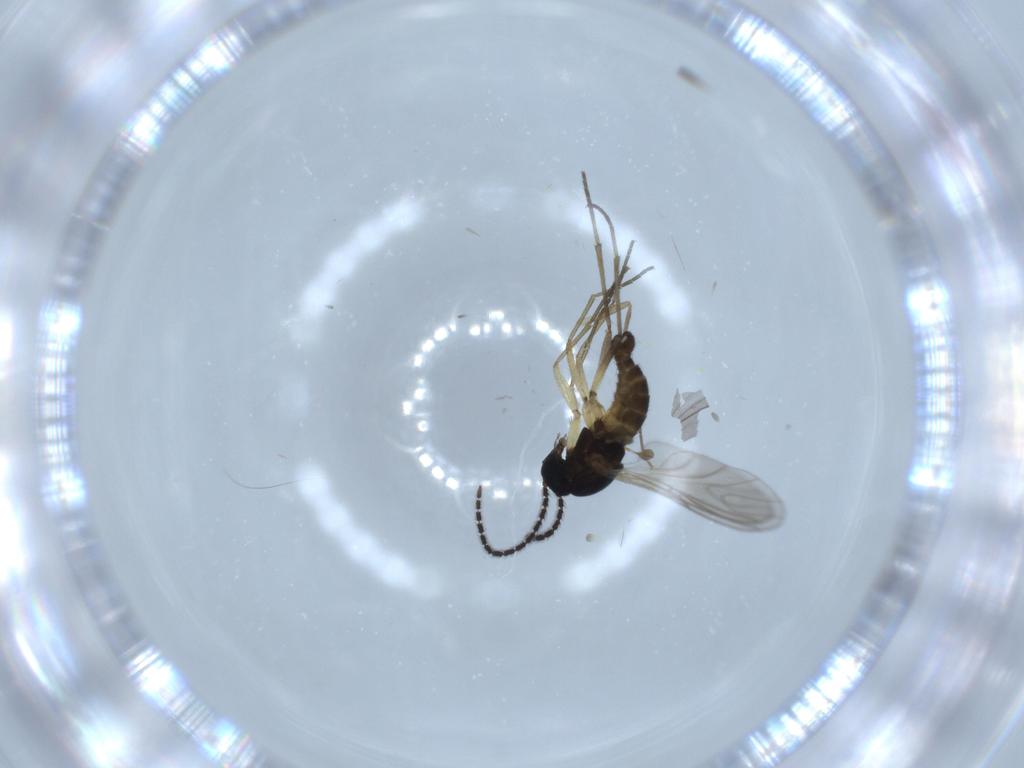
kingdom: Animalia
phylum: Arthropoda
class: Insecta
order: Diptera
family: Sciaridae
